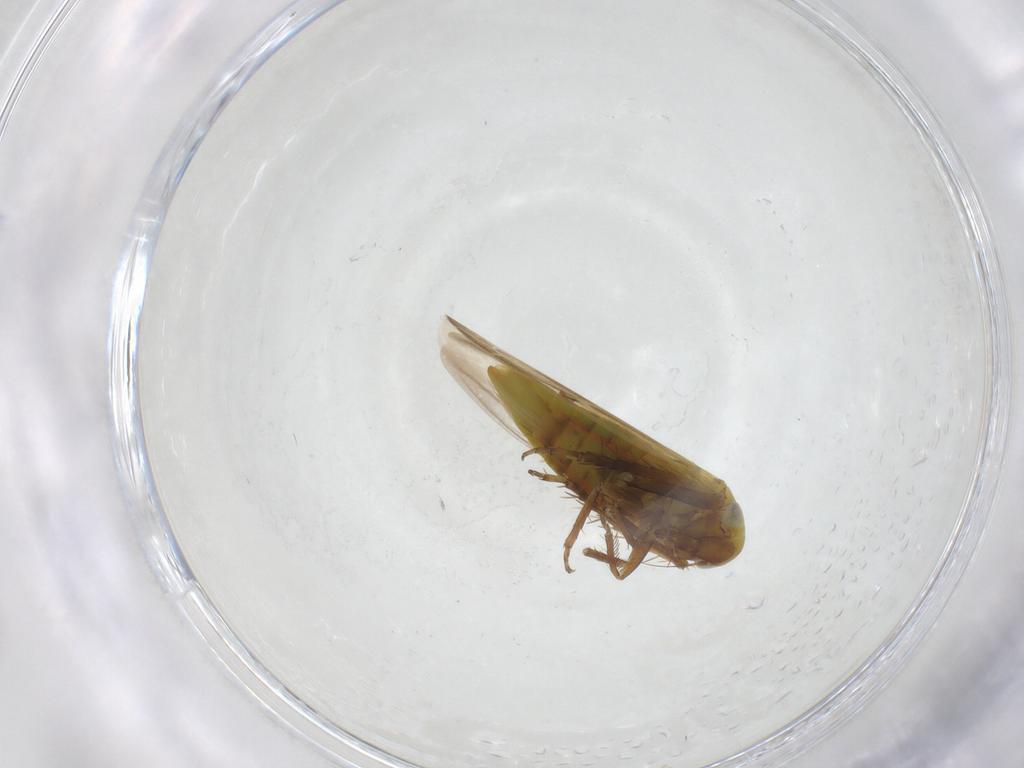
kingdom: Animalia
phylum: Arthropoda
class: Insecta
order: Hemiptera
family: Cicadellidae
